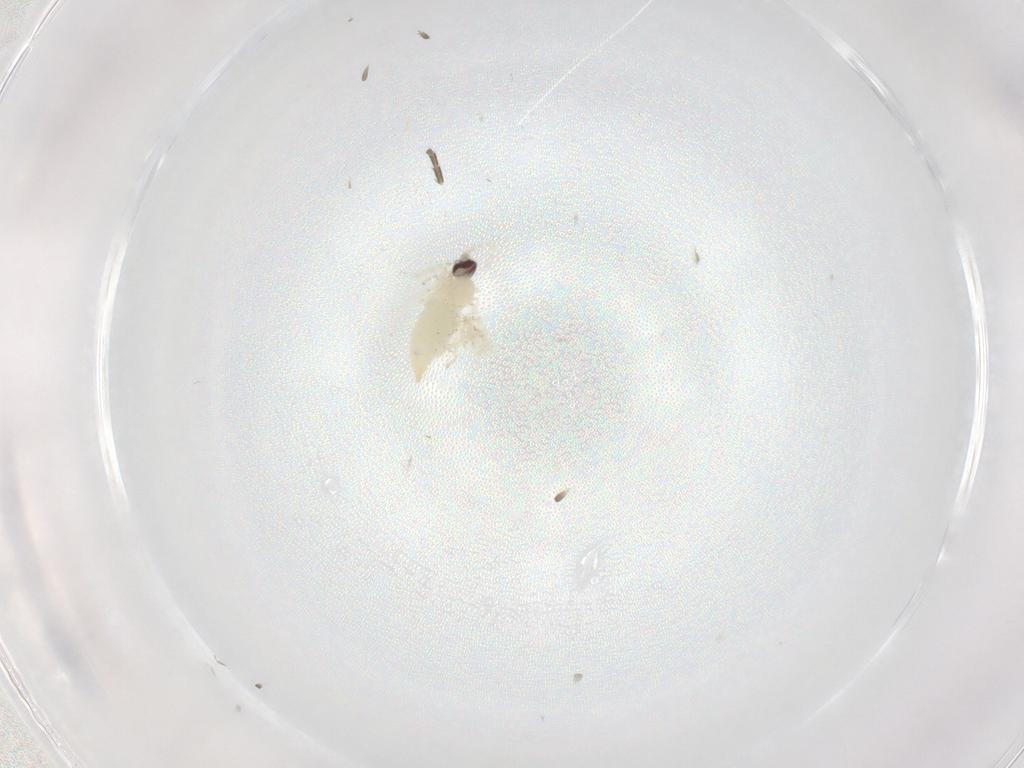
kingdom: Animalia
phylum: Arthropoda
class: Insecta
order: Diptera
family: Cecidomyiidae
